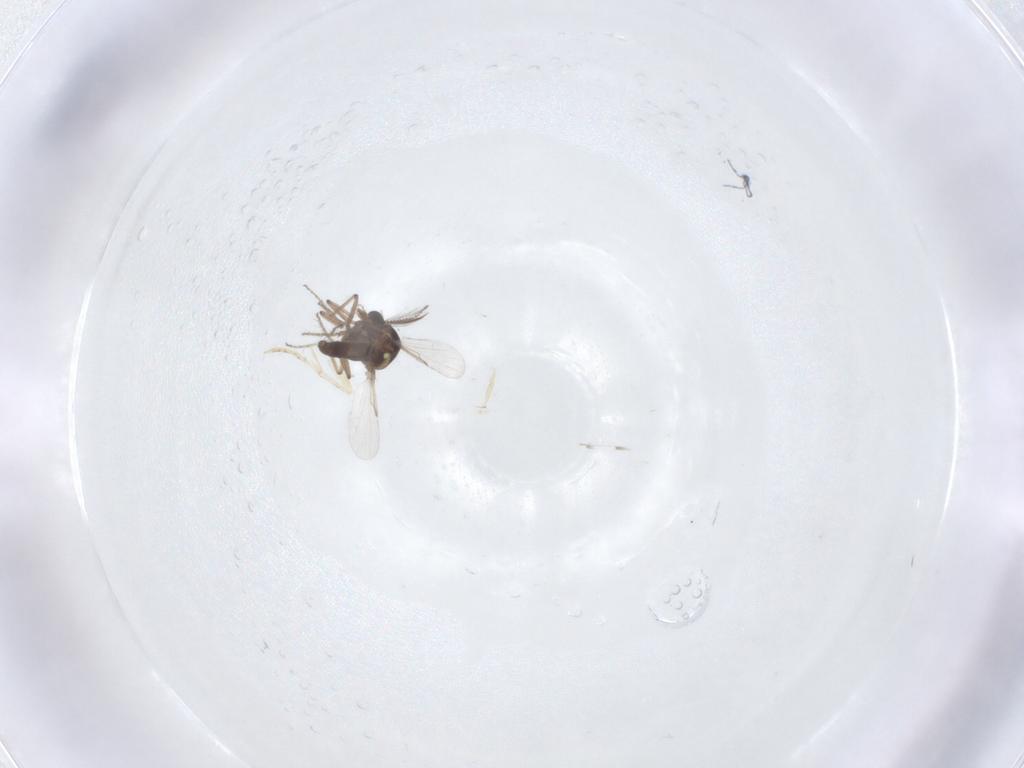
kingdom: Animalia
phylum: Arthropoda
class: Insecta
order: Diptera
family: Ceratopogonidae
